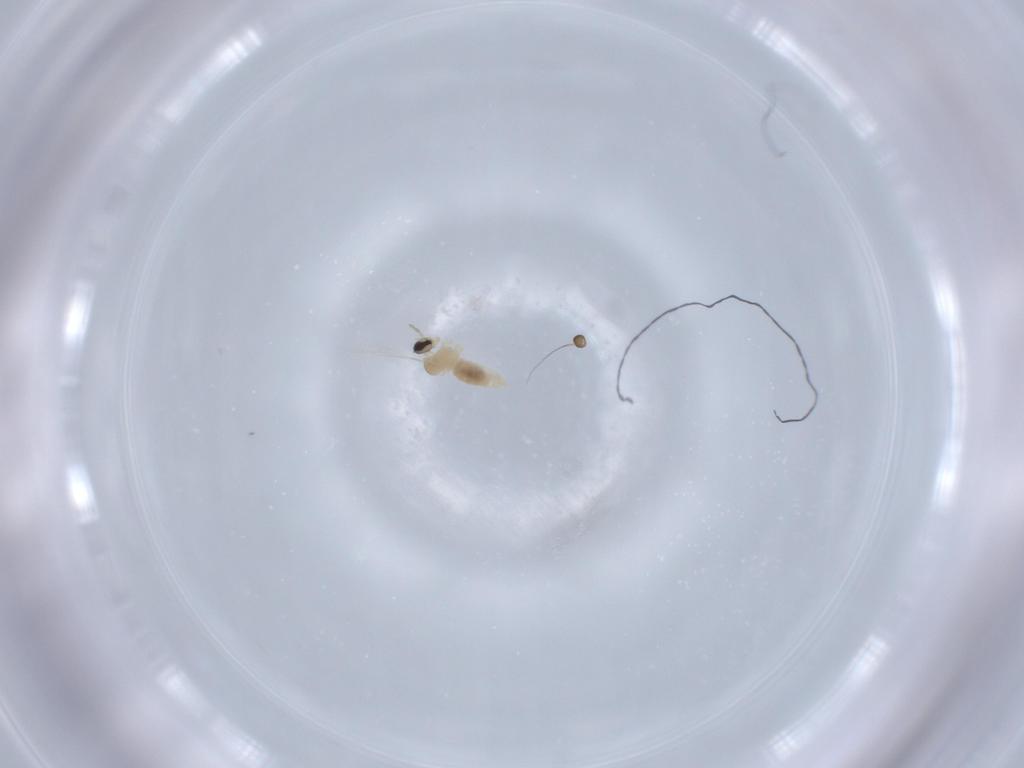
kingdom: Animalia
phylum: Arthropoda
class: Insecta
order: Diptera
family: Cecidomyiidae
